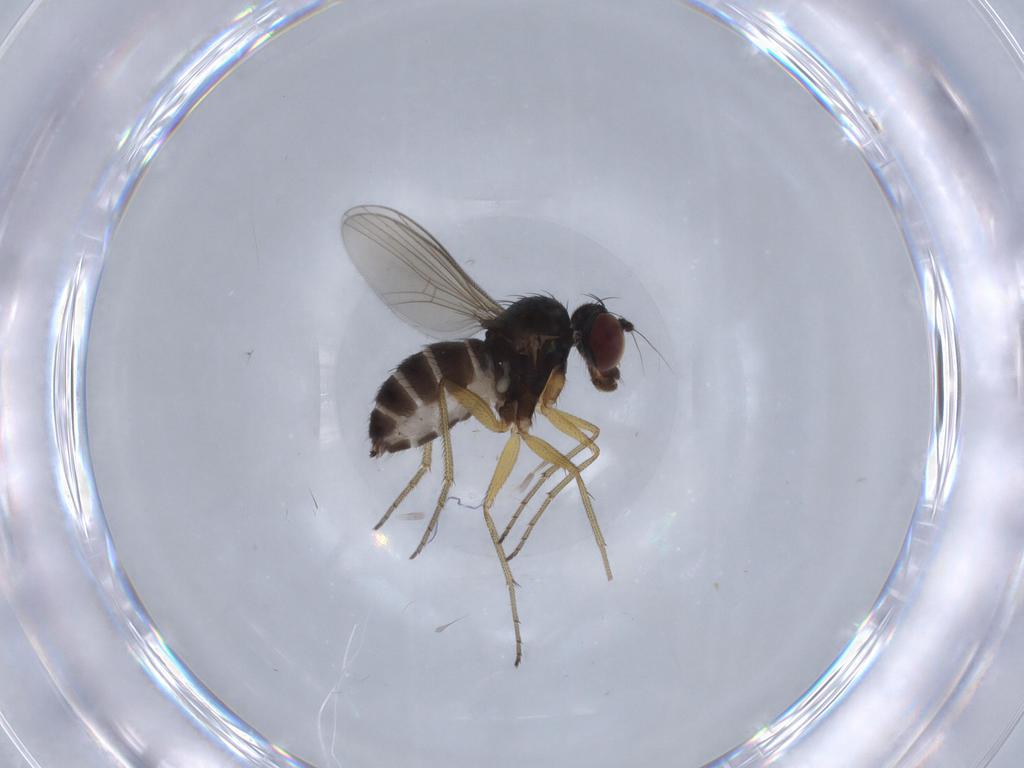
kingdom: Animalia
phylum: Arthropoda
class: Insecta
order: Diptera
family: Dolichopodidae
